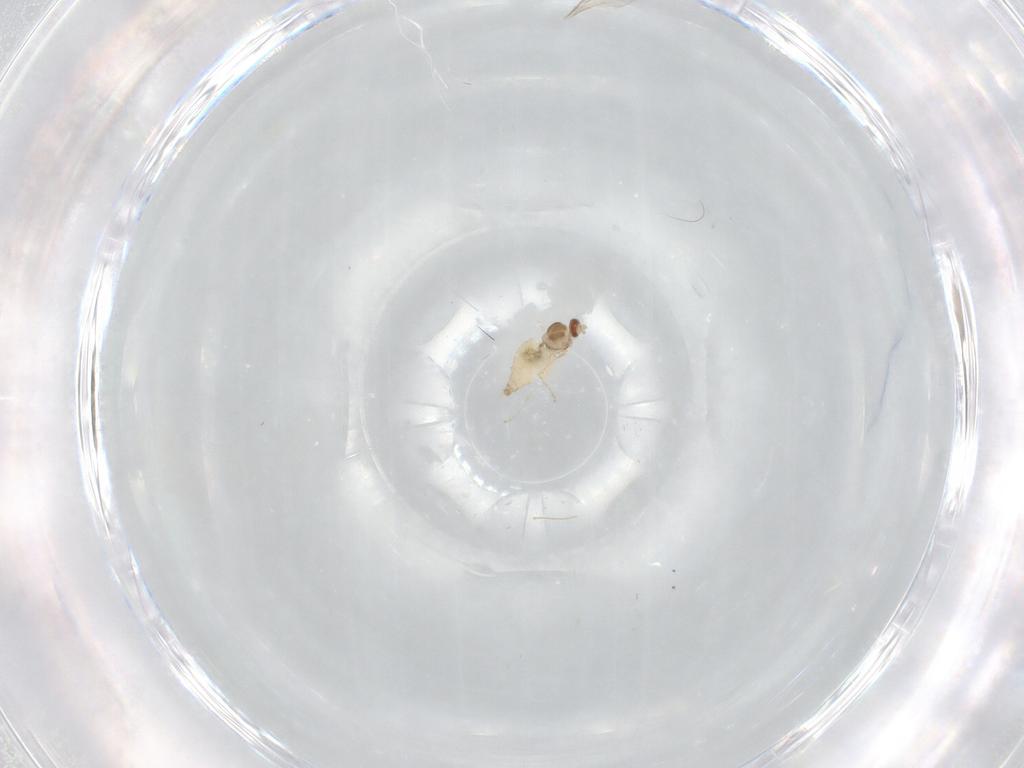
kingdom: Animalia
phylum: Arthropoda
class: Insecta
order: Diptera
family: Cecidomyiidae
